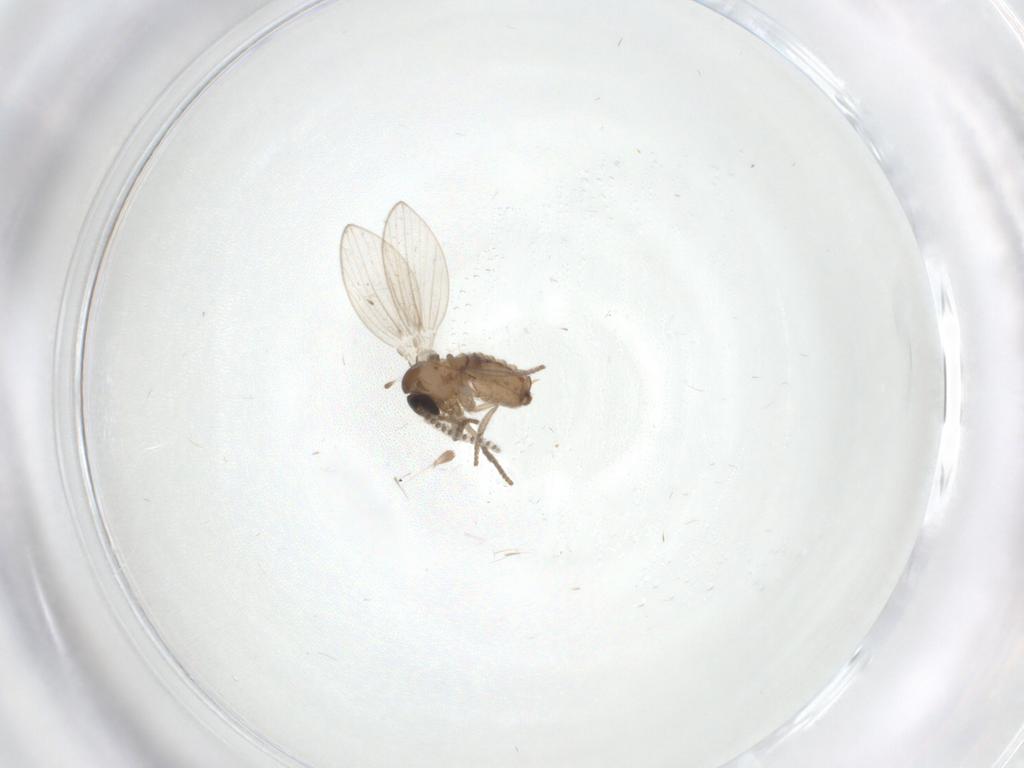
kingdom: Animalia
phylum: Arthropoda
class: Insecta
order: Diptera
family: Psychodidae
